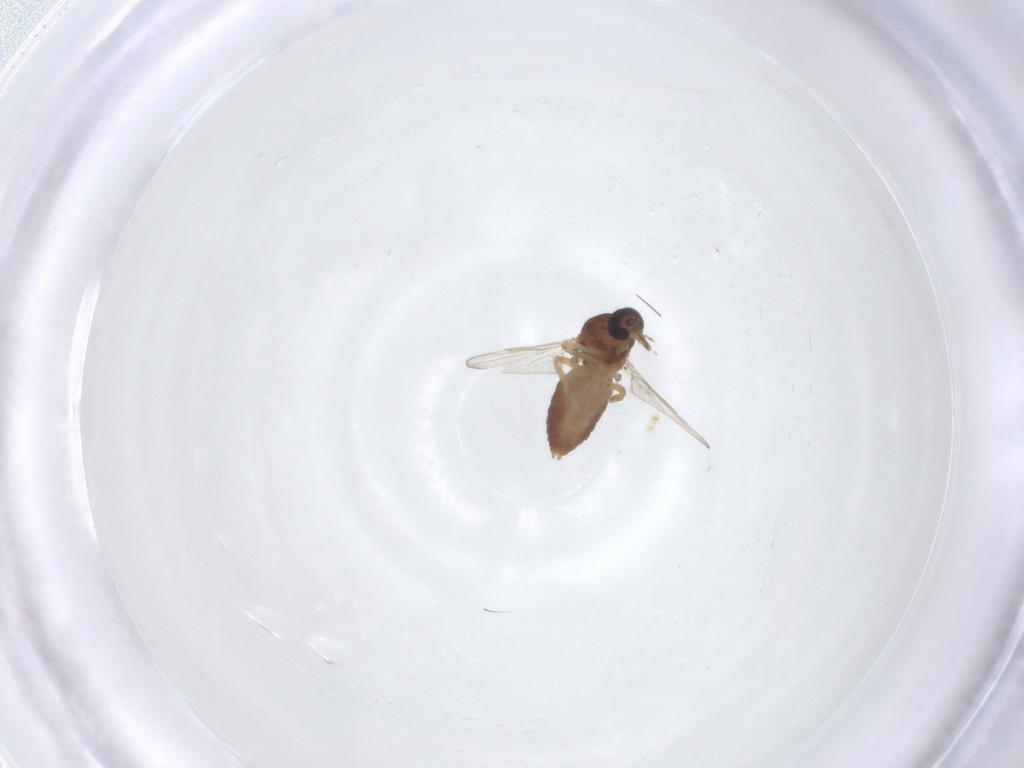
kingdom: Animalia
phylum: Arthropoda
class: Insecta
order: Diptera
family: Ceratopogonidae
